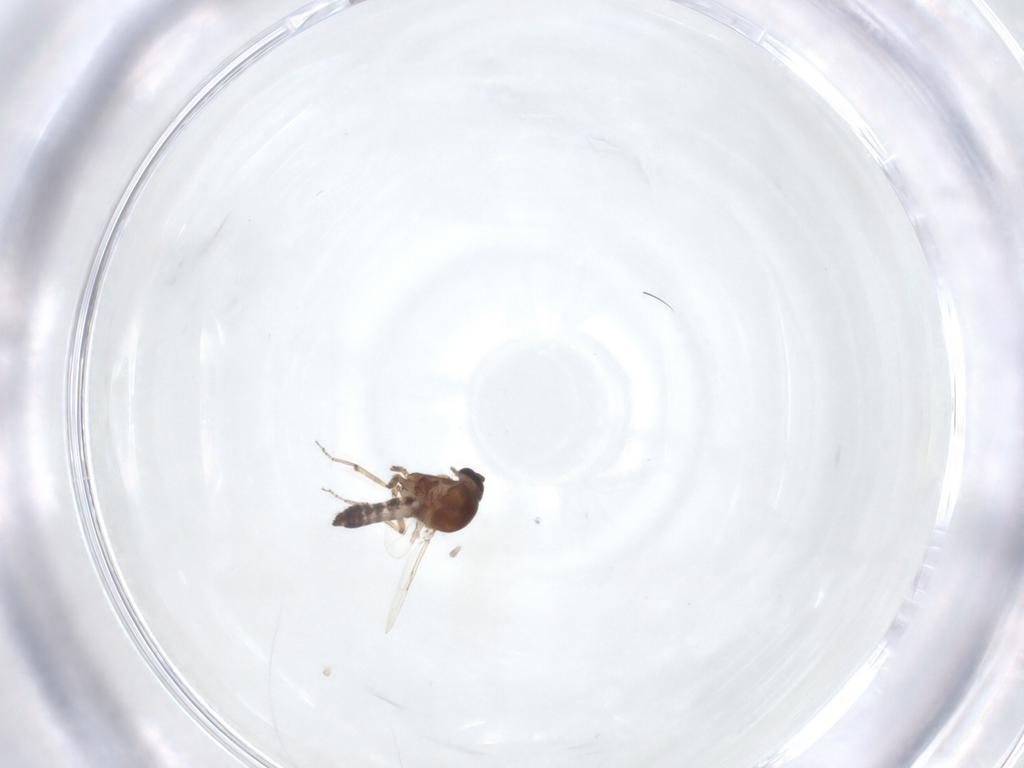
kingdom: Animalia
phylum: Arthropoda
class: Insecta
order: Diptera
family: Ceratopogonidae
